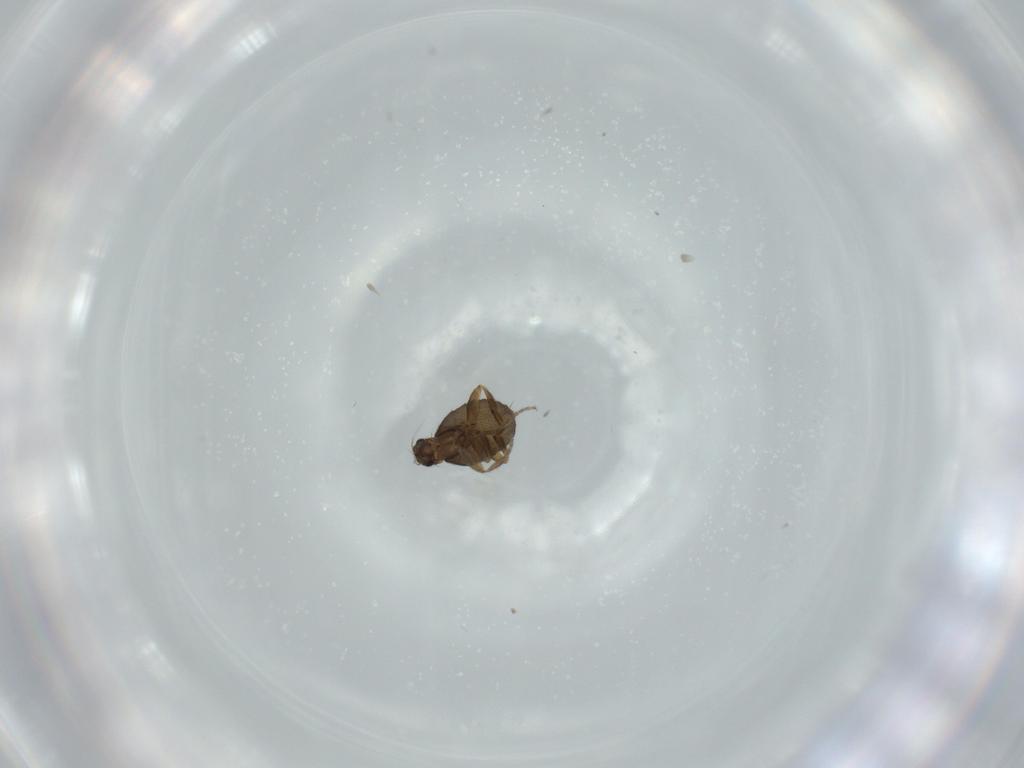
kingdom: Animalia
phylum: Arthropoda
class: Insecta
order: Diptera
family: Phoridae
